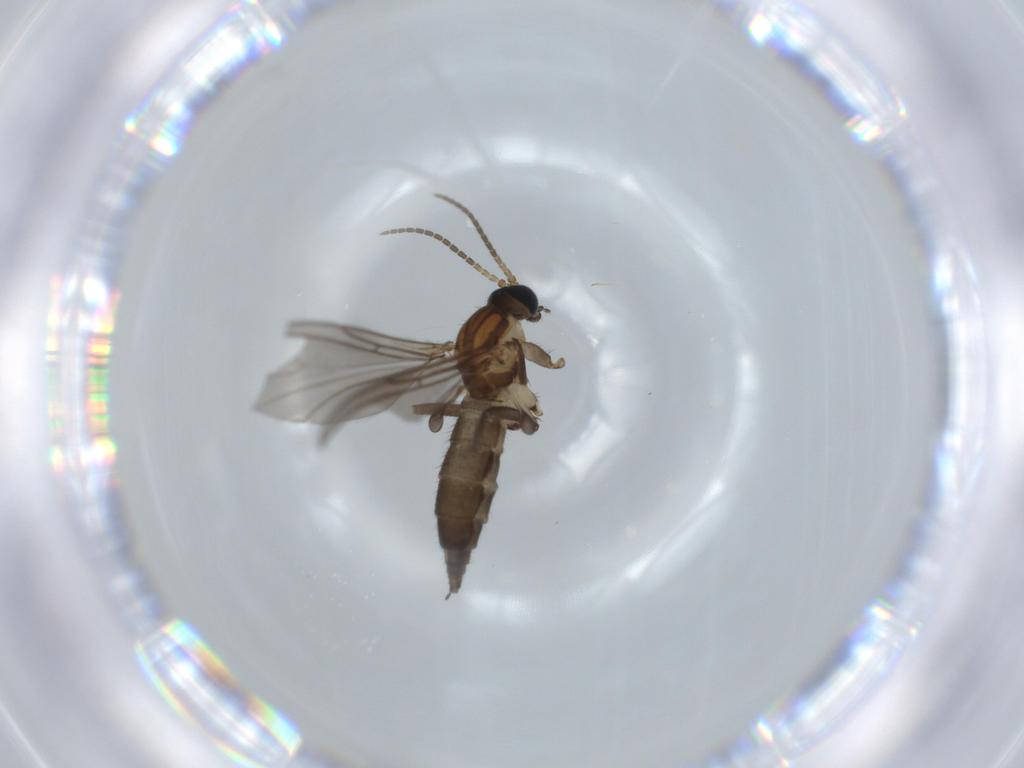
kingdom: Animalia
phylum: Arthropoda
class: Insecta
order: Diptera
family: Sciaridae
